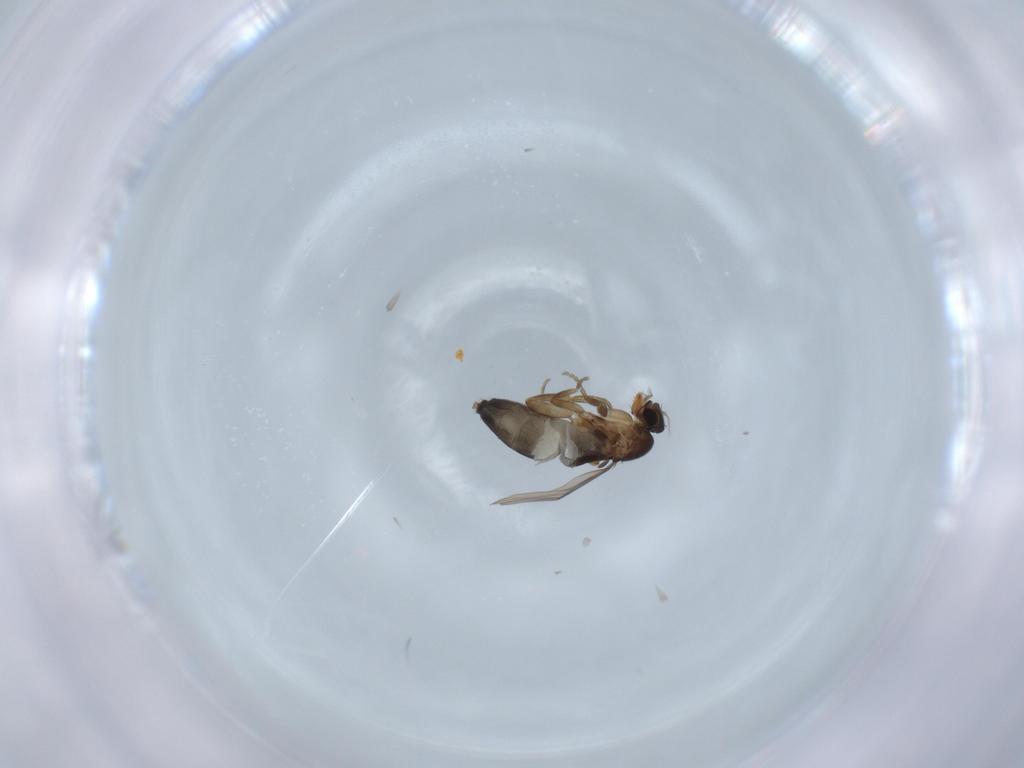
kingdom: Animalia
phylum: Arthropoda
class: Insecta
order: Diptera
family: Phoridae
